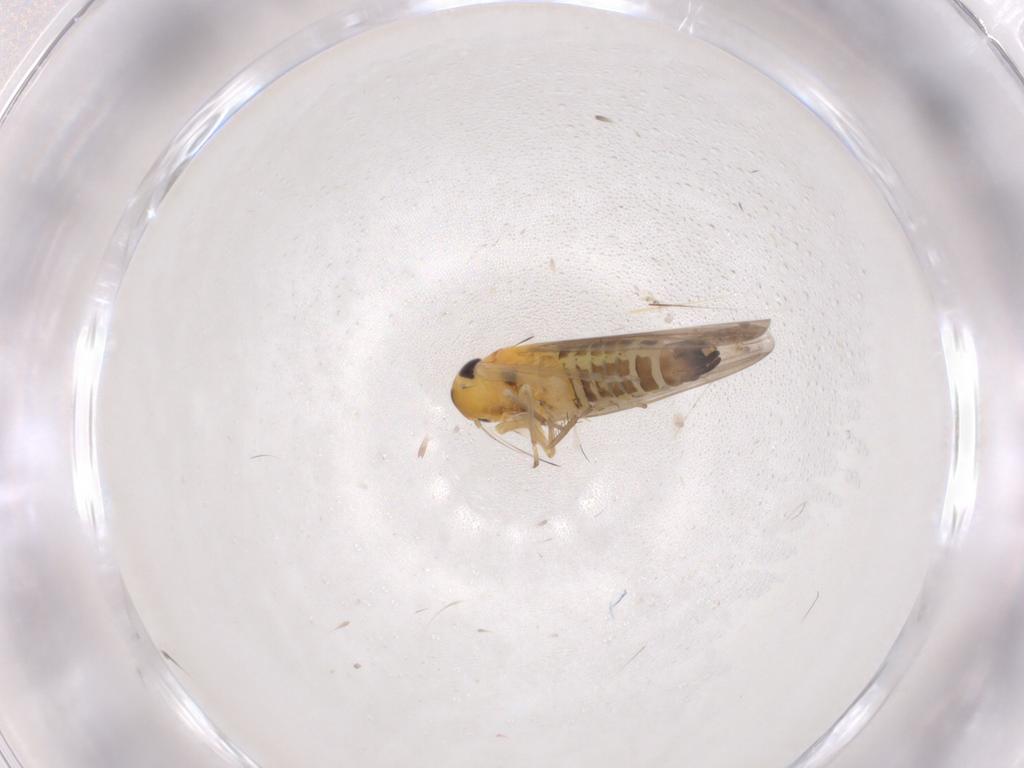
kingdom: Animalia
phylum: Arthropoda
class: Insecta
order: Hemiptera
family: Cicadellidae
